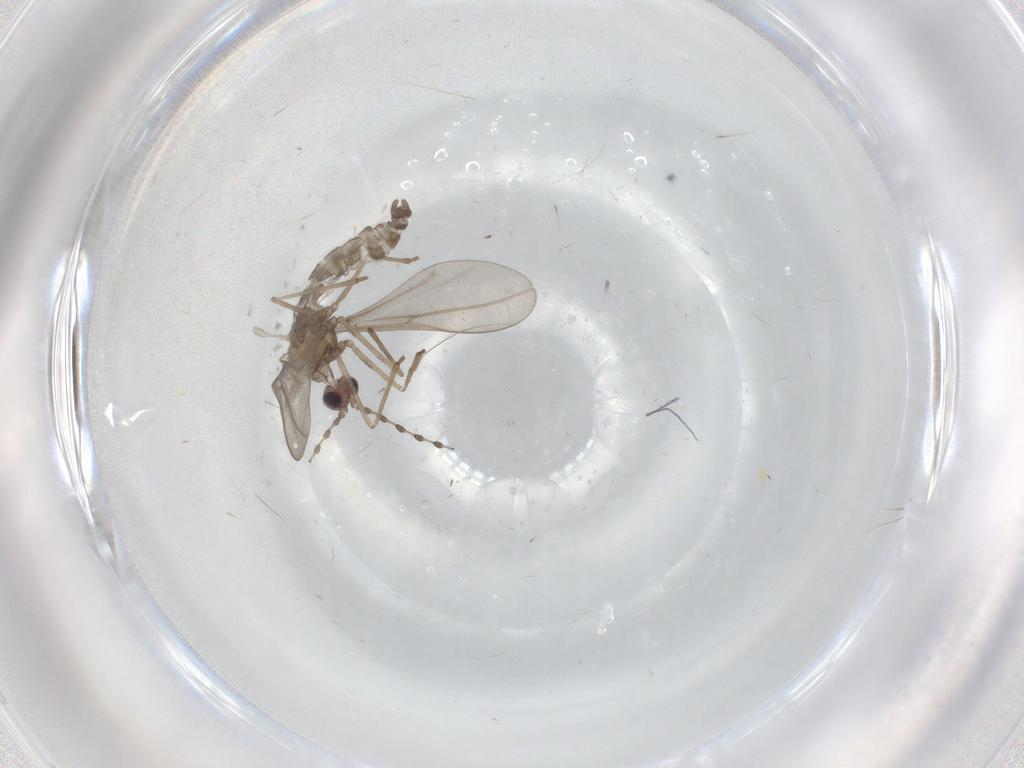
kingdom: Animalia
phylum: Arthropoda
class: Insecta
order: Diptera
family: Cecidomyiidae
